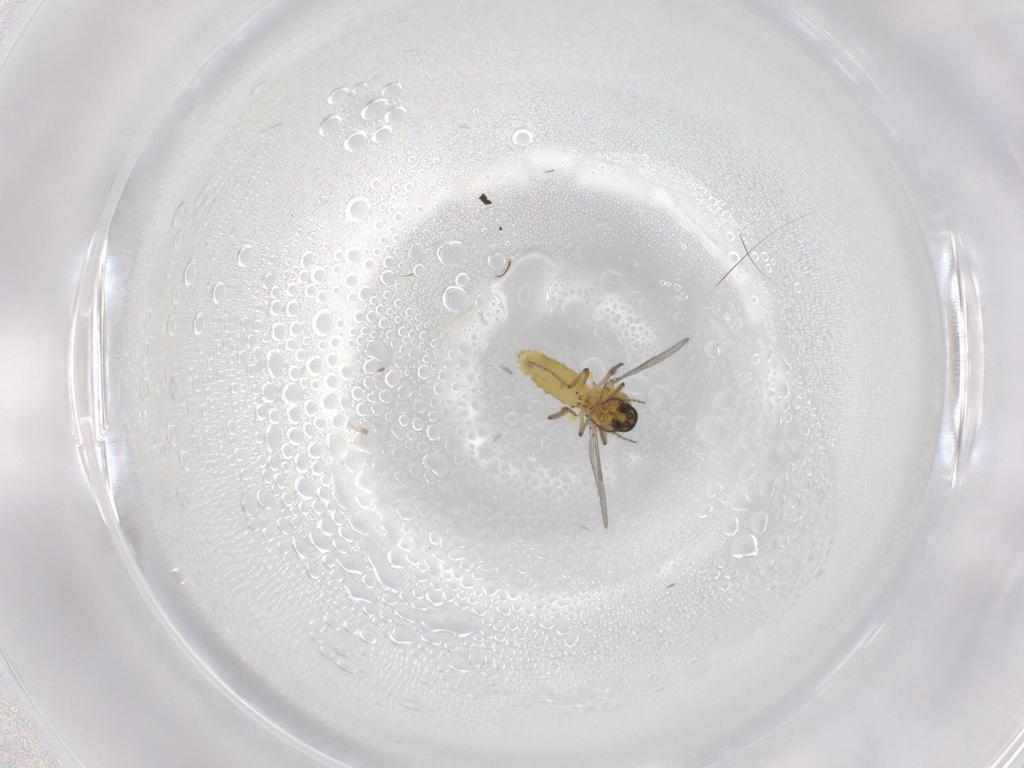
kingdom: Animalia
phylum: Arthropoda
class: Insecta
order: Diptera
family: Ceratopogonidae
